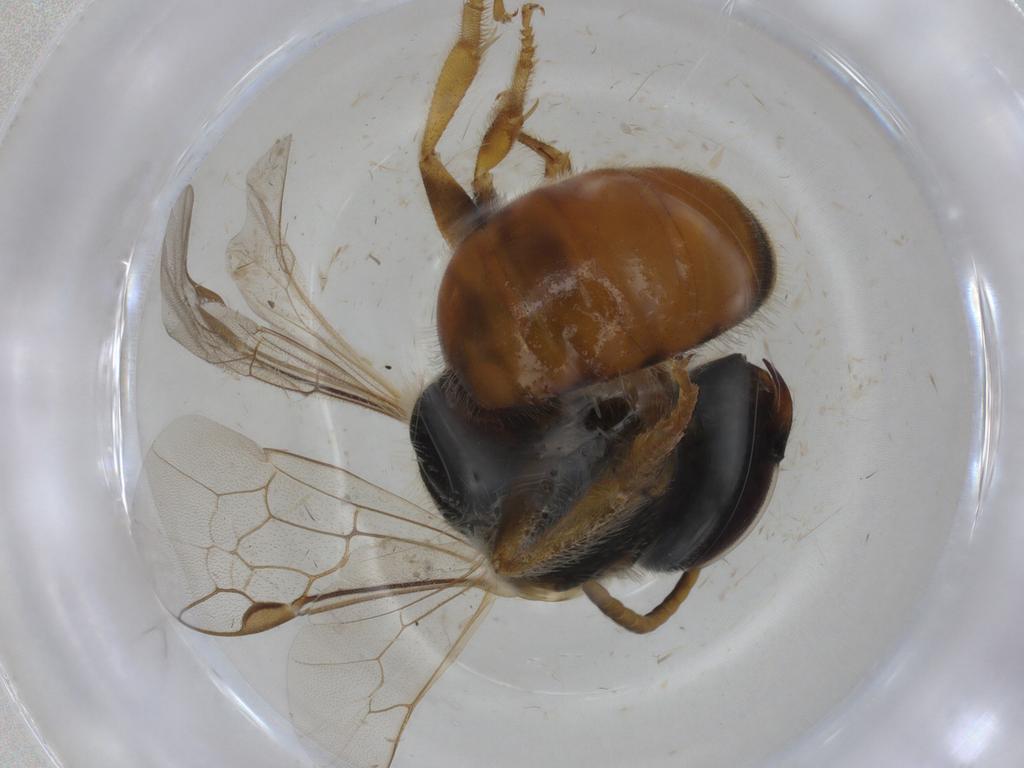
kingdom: Animalia
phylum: Arthropoda
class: Insecta
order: Hymenoptera
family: Halictidae
